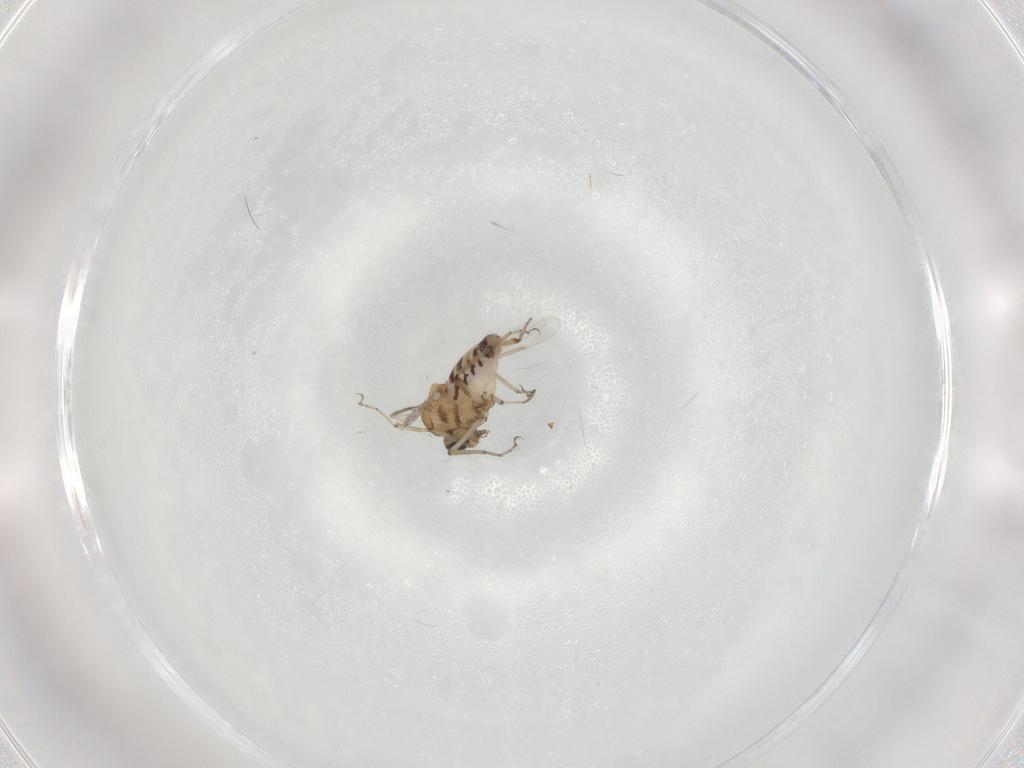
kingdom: Animalia
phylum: Arthropoda
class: Insecta
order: Diptera
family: Ceratopogonidae
